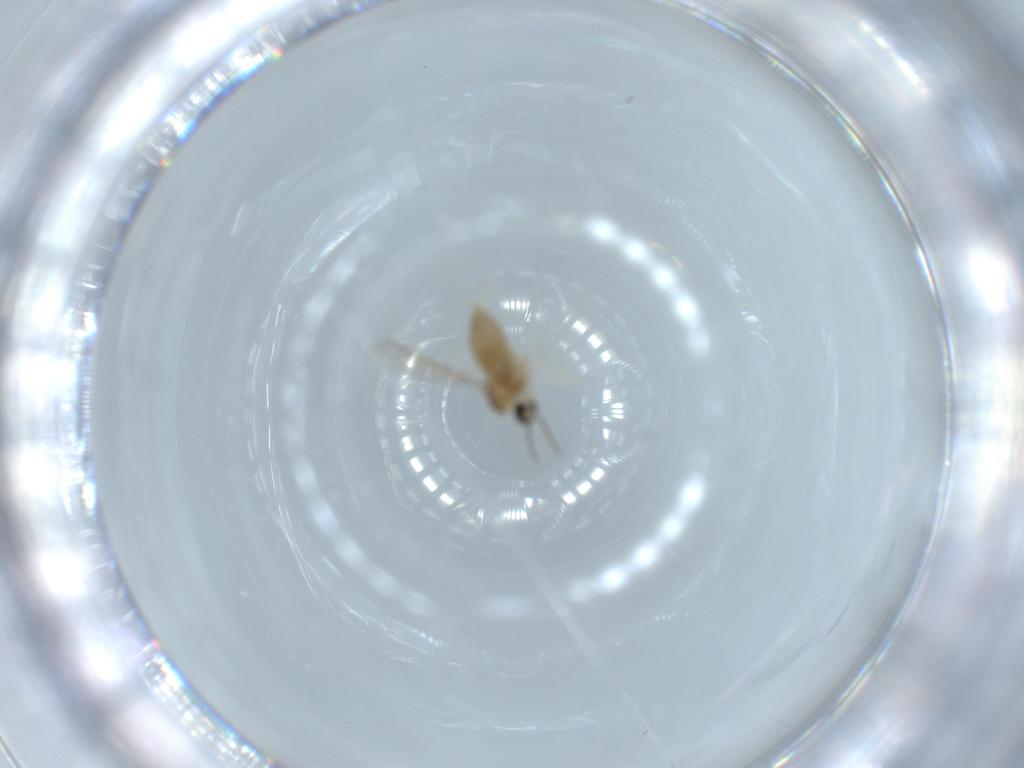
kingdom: Animalia
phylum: Arthropoda
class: Insecta
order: Diptera
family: Cecidomyiidae
